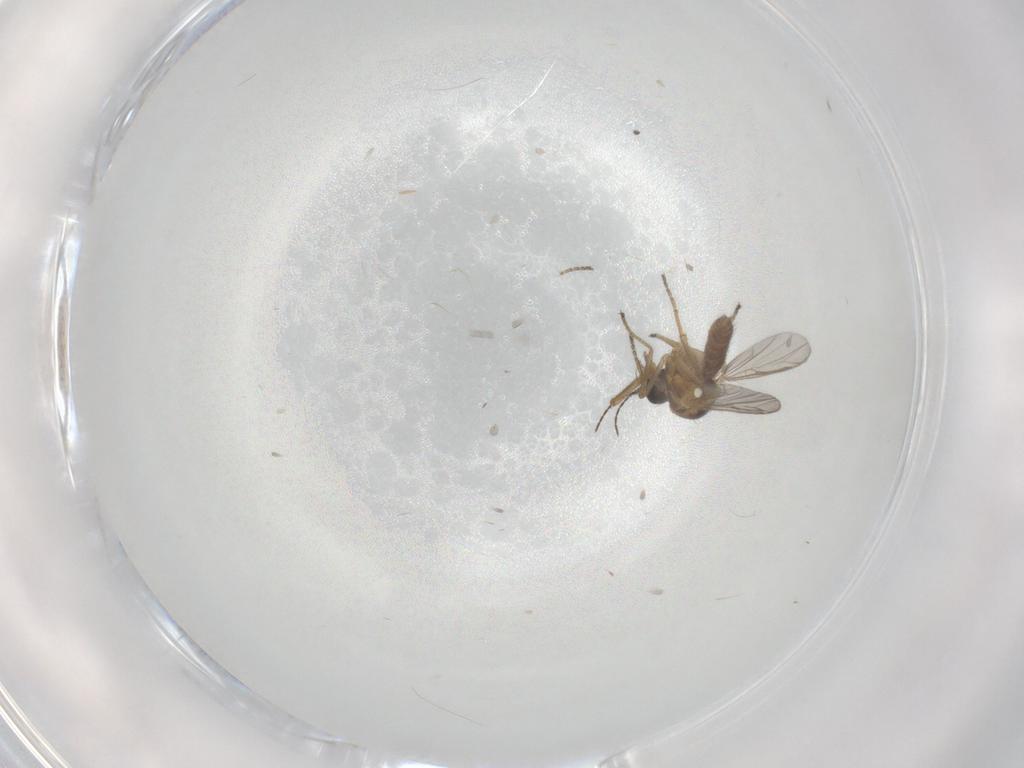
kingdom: Animalia
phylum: Arthropoda
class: Insecta
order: Diptera
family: Ceratopogonidae
